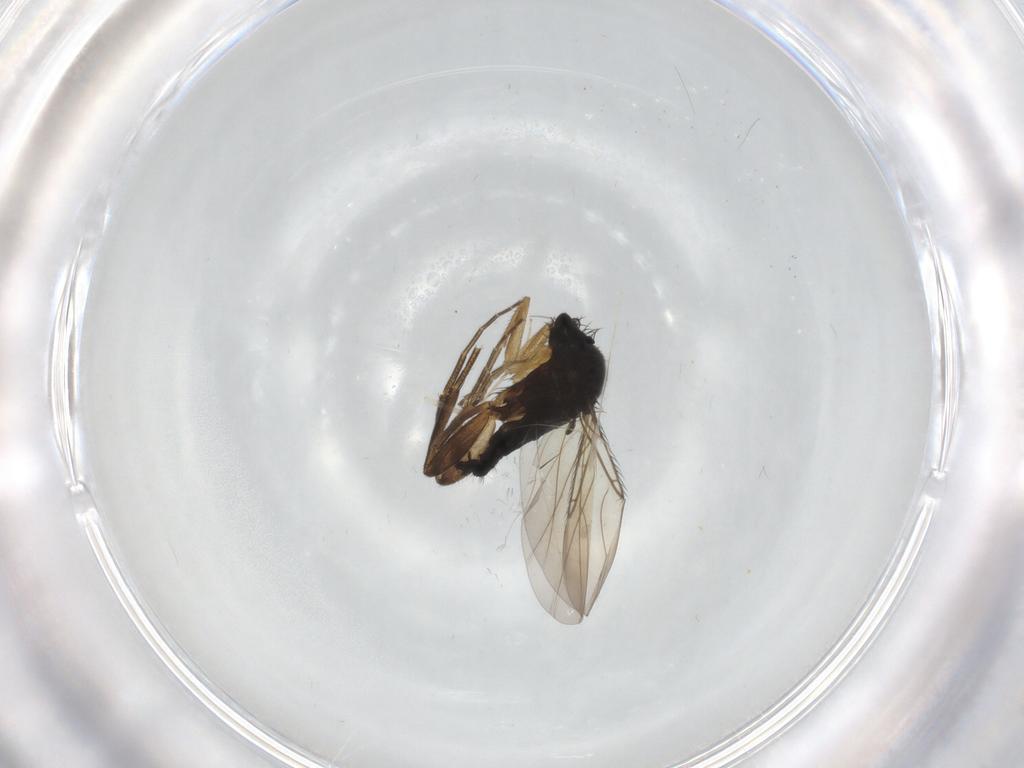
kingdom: Animalia
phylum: Arthropoda
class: Insecta
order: Diptera
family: Phoridae
